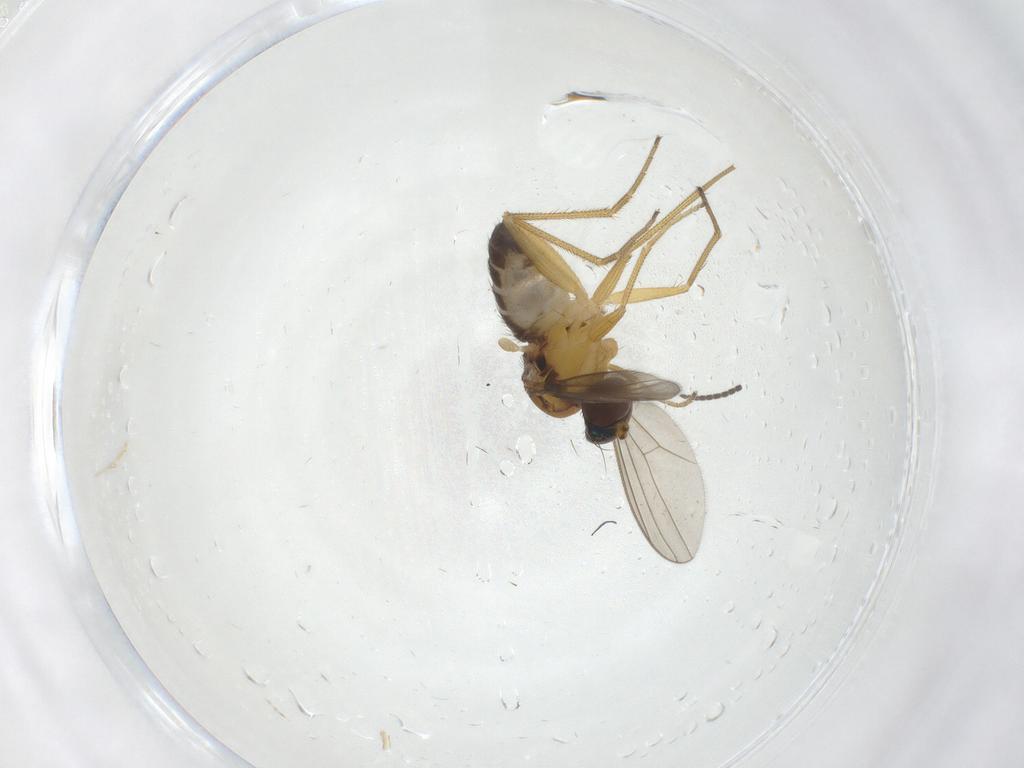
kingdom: Animalia
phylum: Arthropoda
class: Insecta
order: Diptera
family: Dolichopodidae
